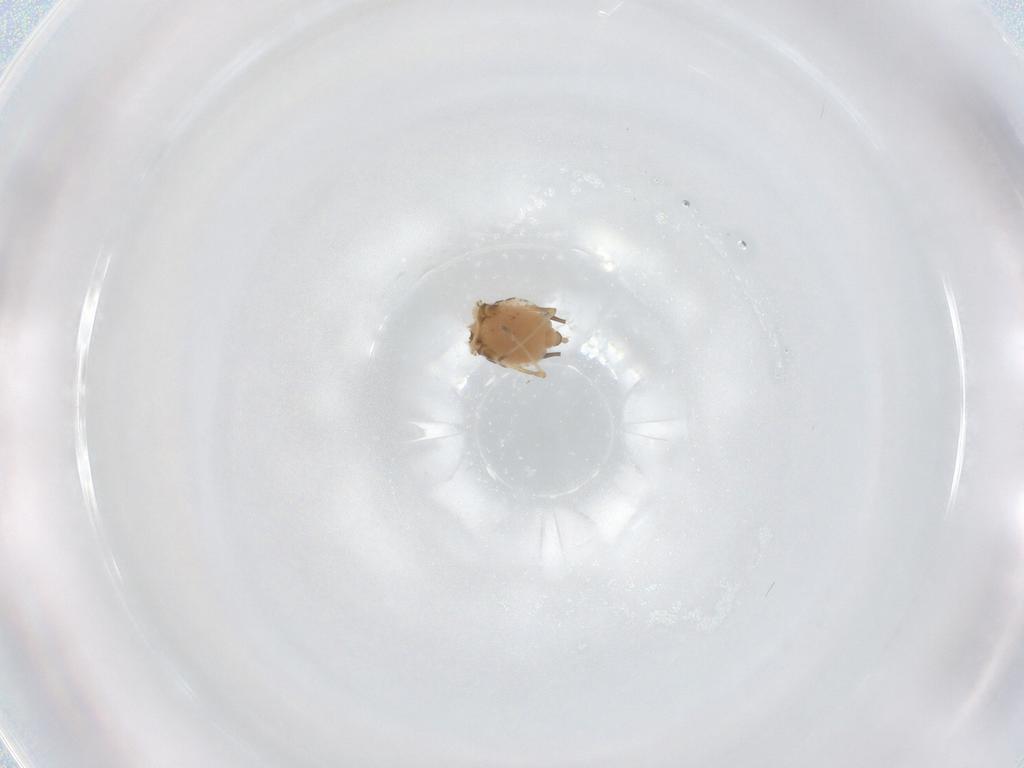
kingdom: Animalia
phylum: Arthropoda
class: Insecta
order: Hemiptera
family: Aphididae
